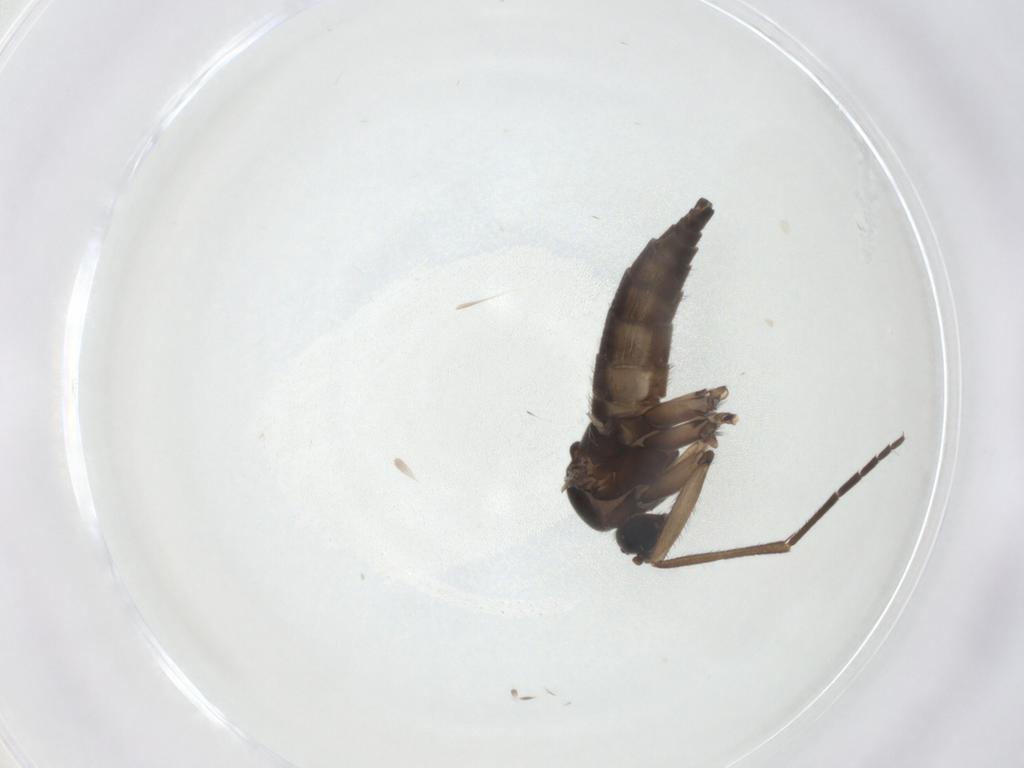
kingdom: Animalia
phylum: Arthropoda
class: Insecta
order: Diptera
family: Sciaridae
